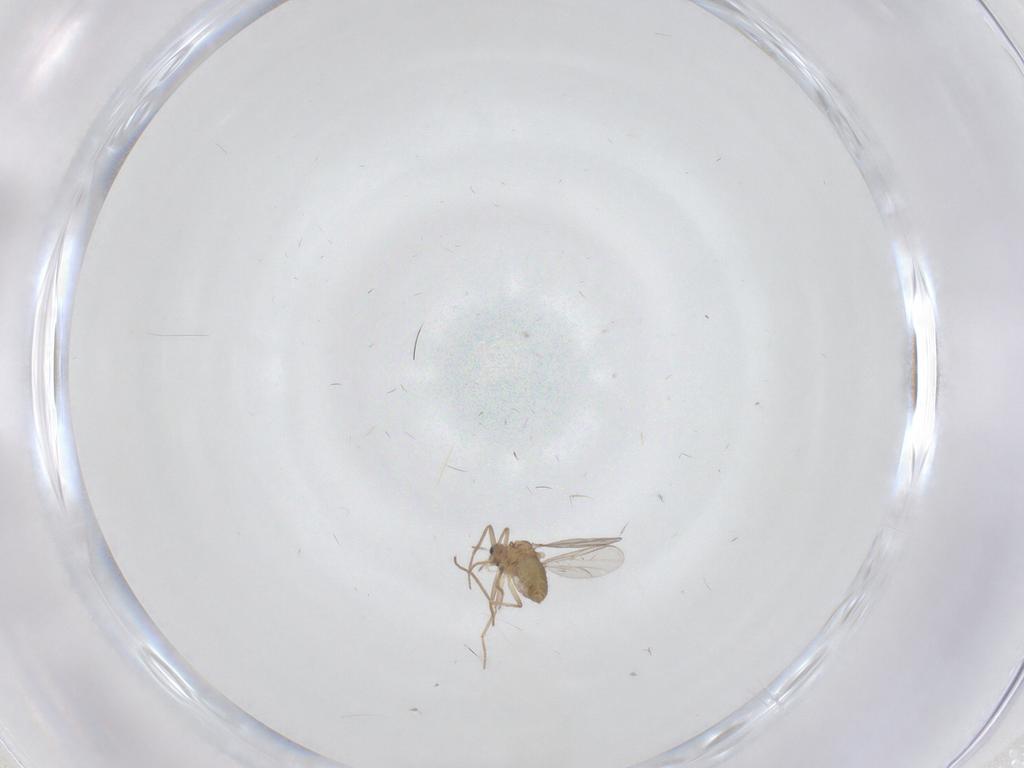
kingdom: Animalia
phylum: Arthropoda
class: Insecta
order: Diptera
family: Chironomidae
